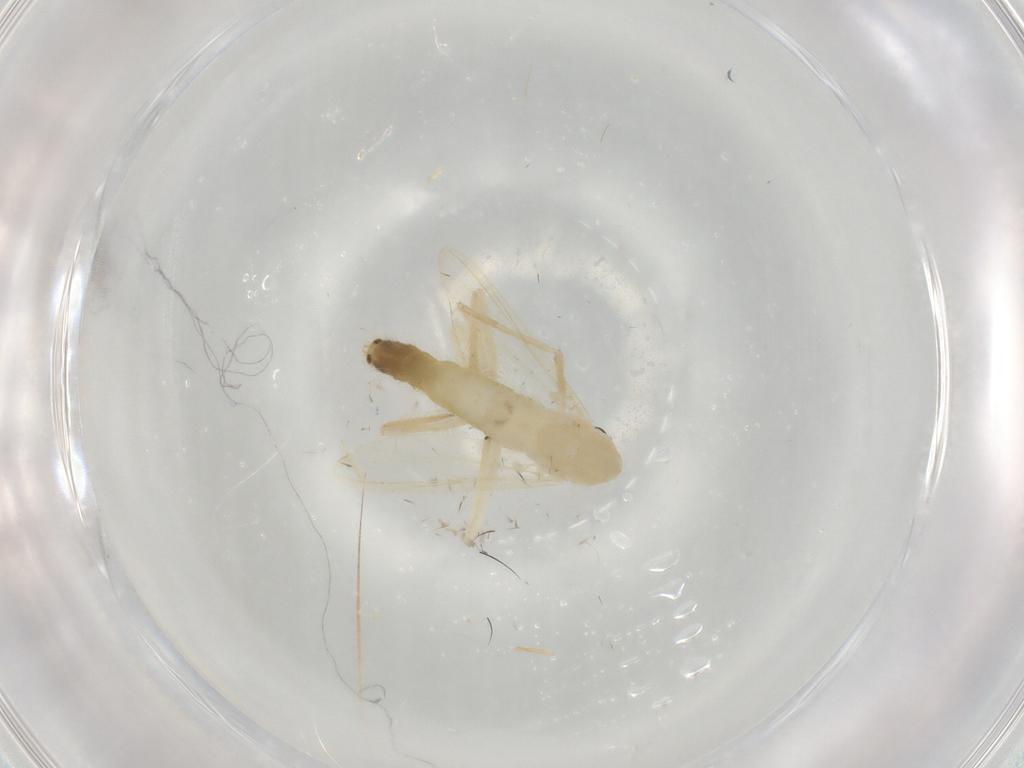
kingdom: Animalia
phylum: Arthropoda
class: Insecta
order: Diptera
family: Chironomidae
